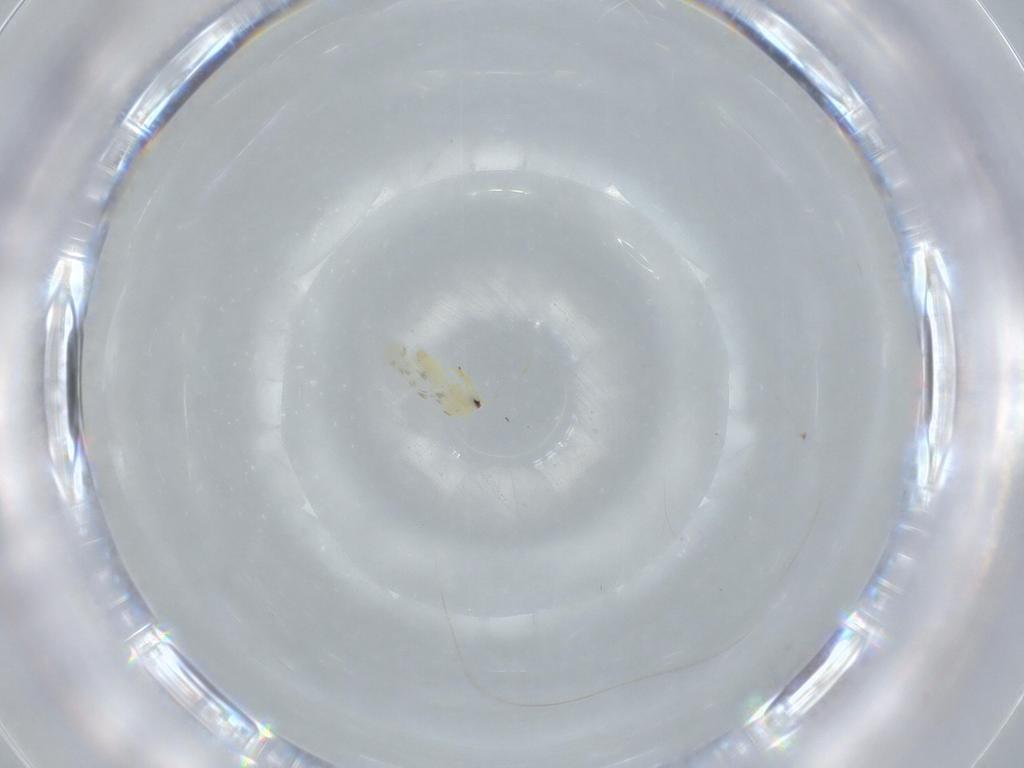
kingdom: Animalia
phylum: Arthropoda
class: Insecta
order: Hemiptera
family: Aleyrodidae
